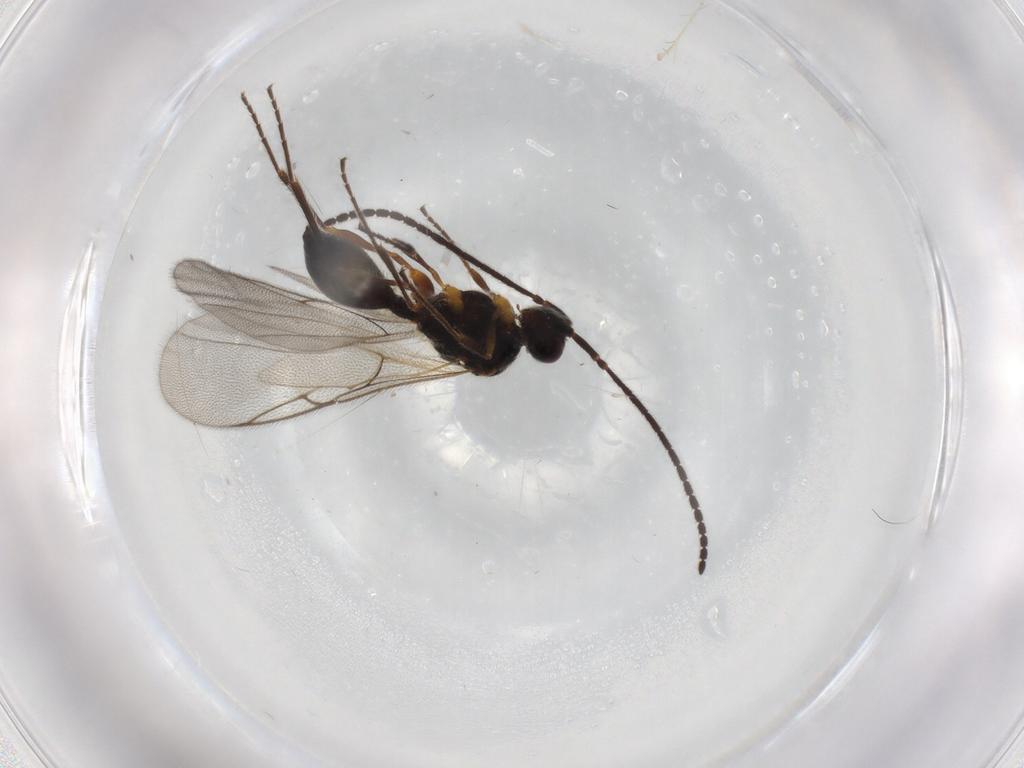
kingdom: Animalia
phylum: Arthropoda
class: Insecta
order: Hymenoptera
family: Diapriidae
